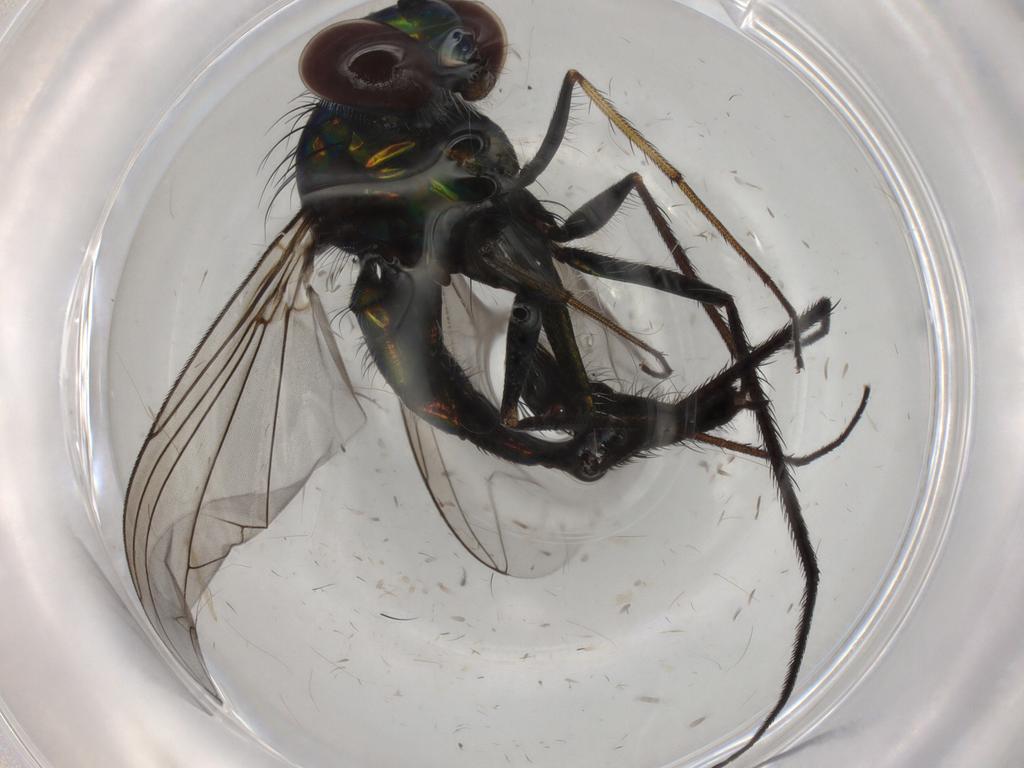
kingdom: Animalia
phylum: Arthropoda
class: Insecta
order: Diptera
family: Dolichopodidae
